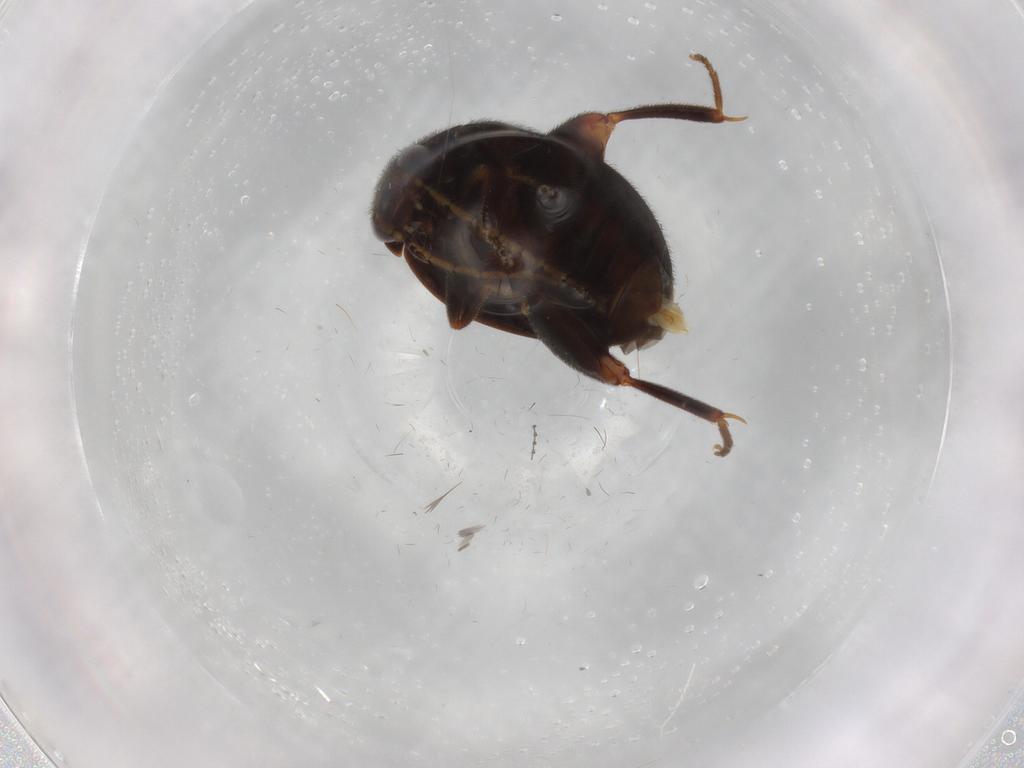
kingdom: Animalia
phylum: Arthropoda
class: Insecta
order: Coleoptera
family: Scirtidae
